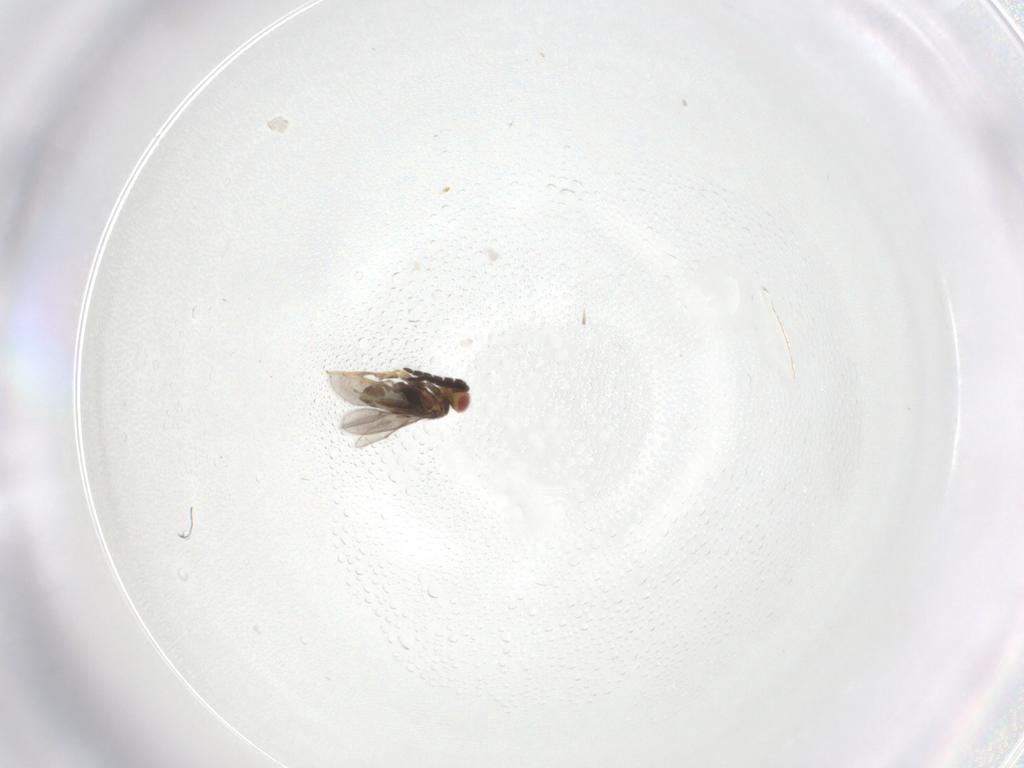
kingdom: Animalia
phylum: Arthropoda
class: Insecta
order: Hymenoptera
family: Aphelinidae
